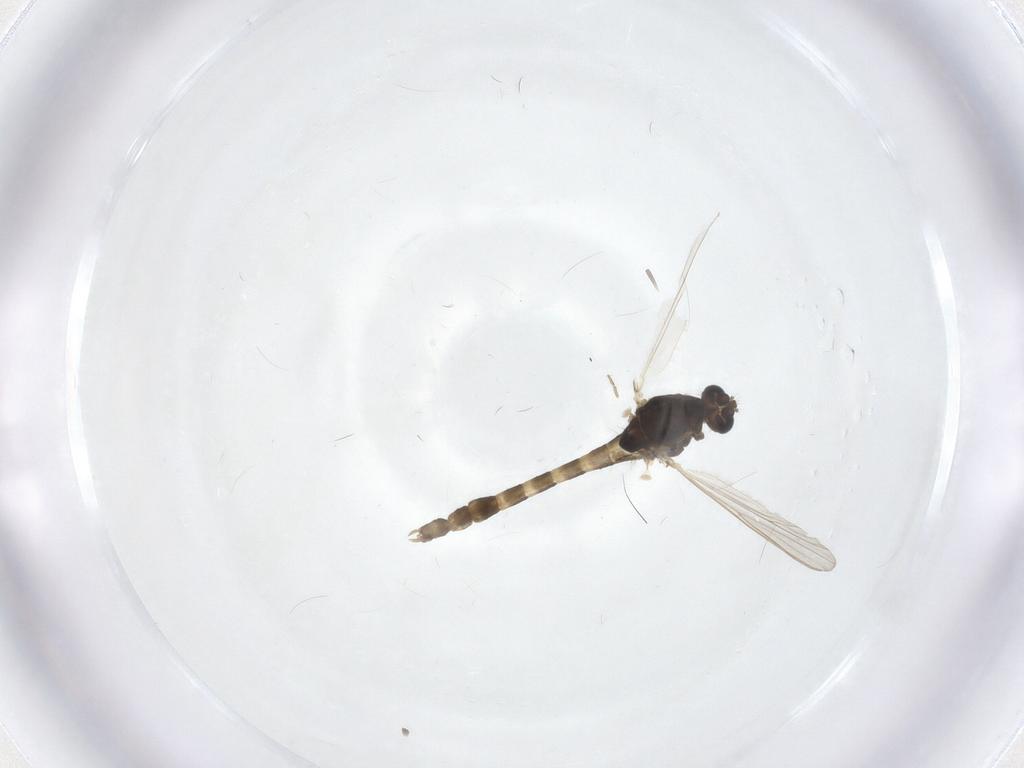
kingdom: Animalia
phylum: Arthropoda
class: Insecta
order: Diptera
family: Chironomidae
